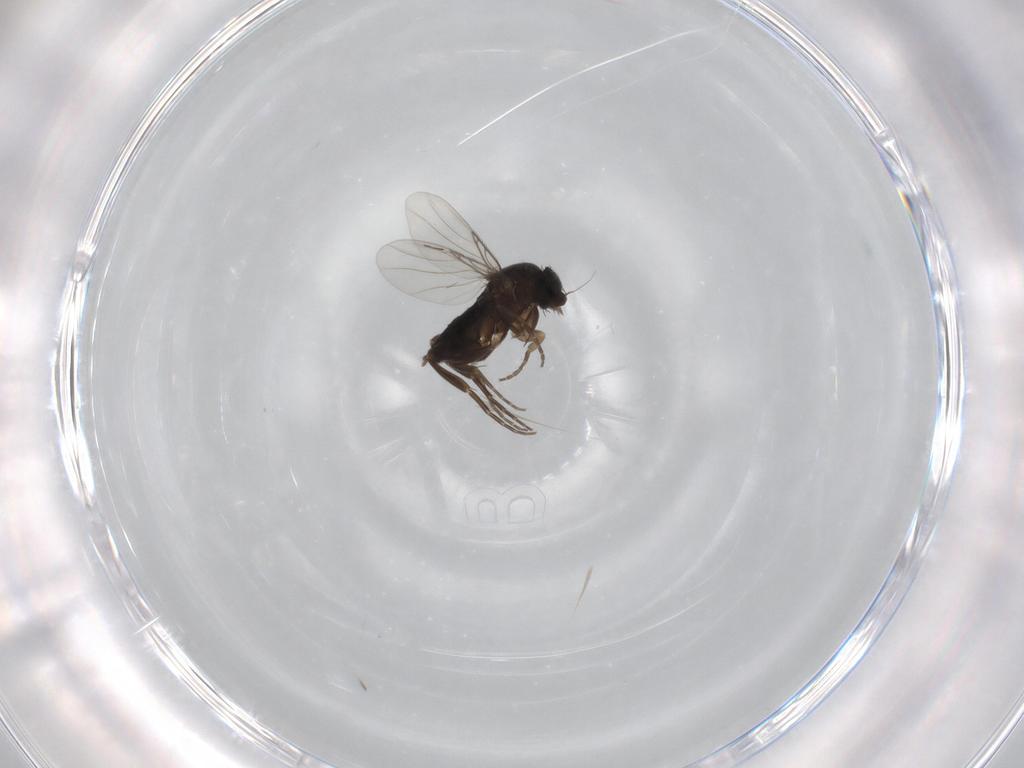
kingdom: Animalia
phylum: Arthropoda
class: Insecta
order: Diptera
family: Phoridae
